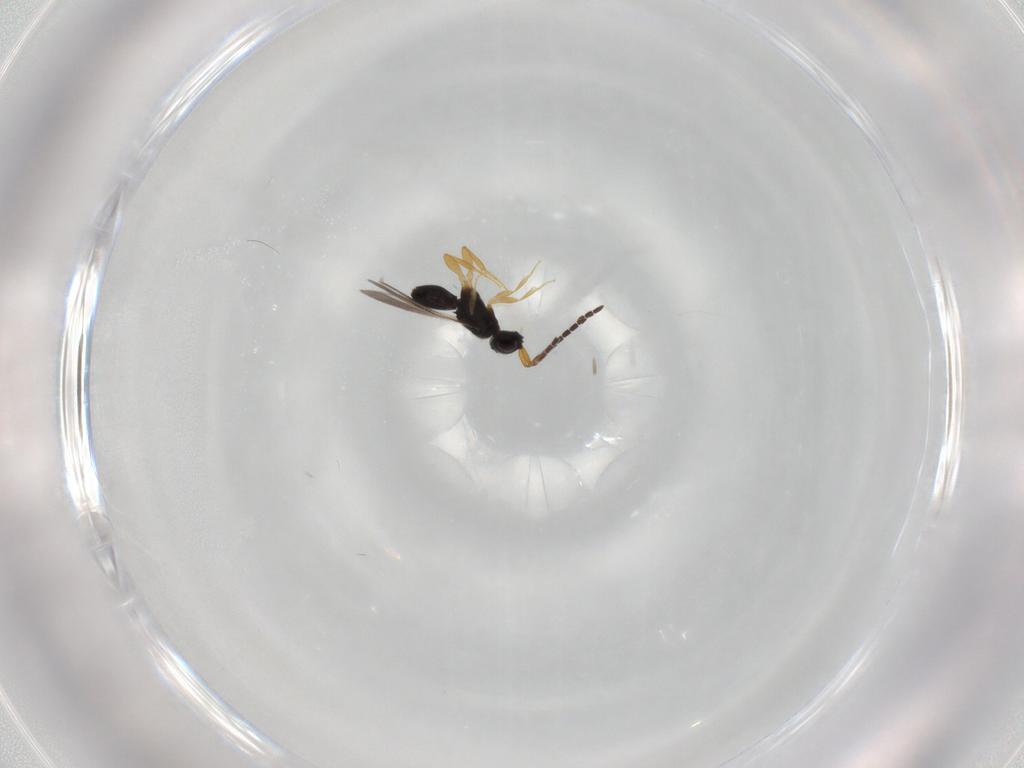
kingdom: Animalia
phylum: Arthropoda
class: Insecta
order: Hymenoptera
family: Ceraphronidae
